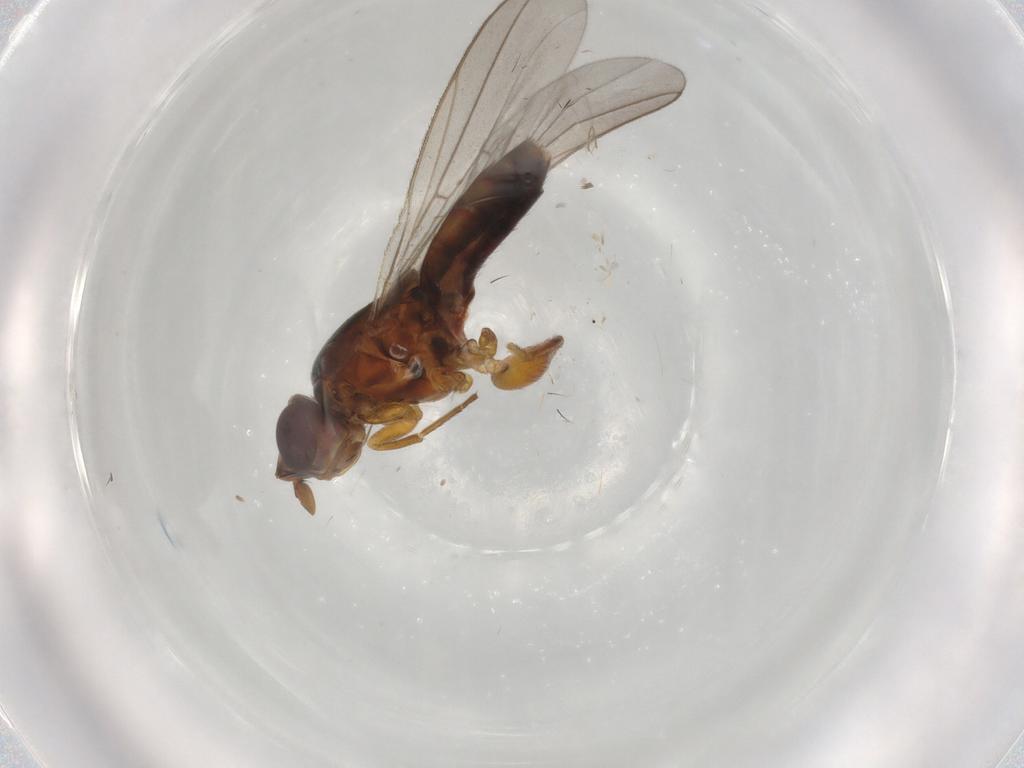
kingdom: Animalia
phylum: Arthropoda
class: Insecta
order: Diptera
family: Chloropidae
